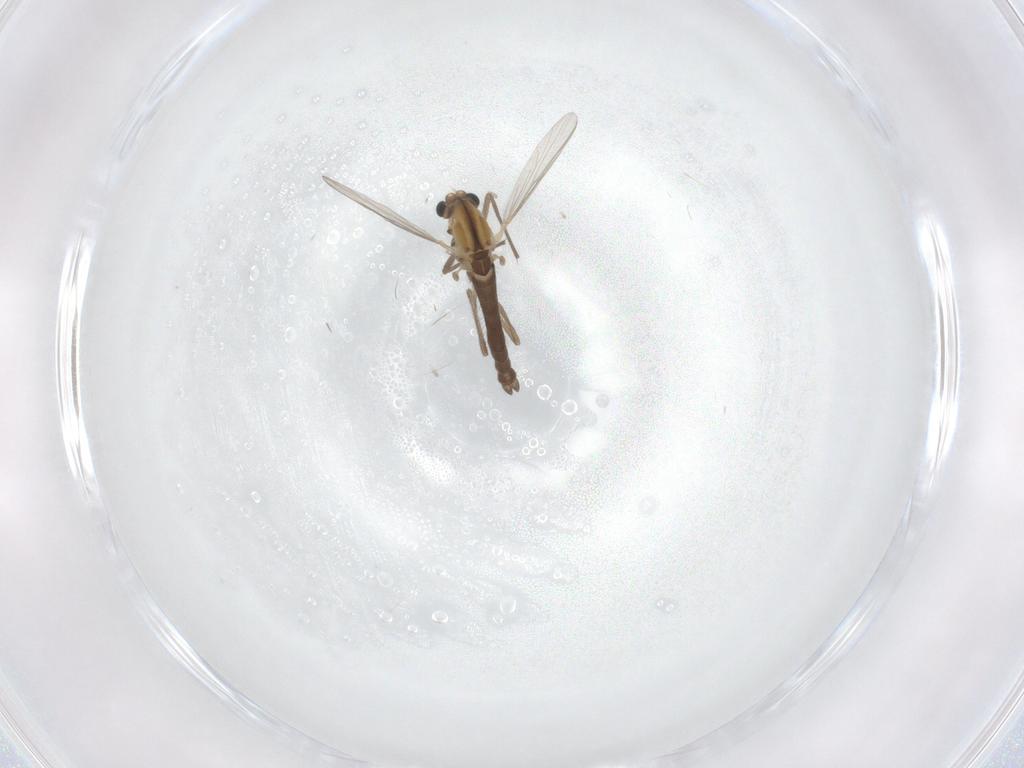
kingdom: Animalia
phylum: Arthropoda
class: Insecta
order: Diptera
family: Chironomidae
